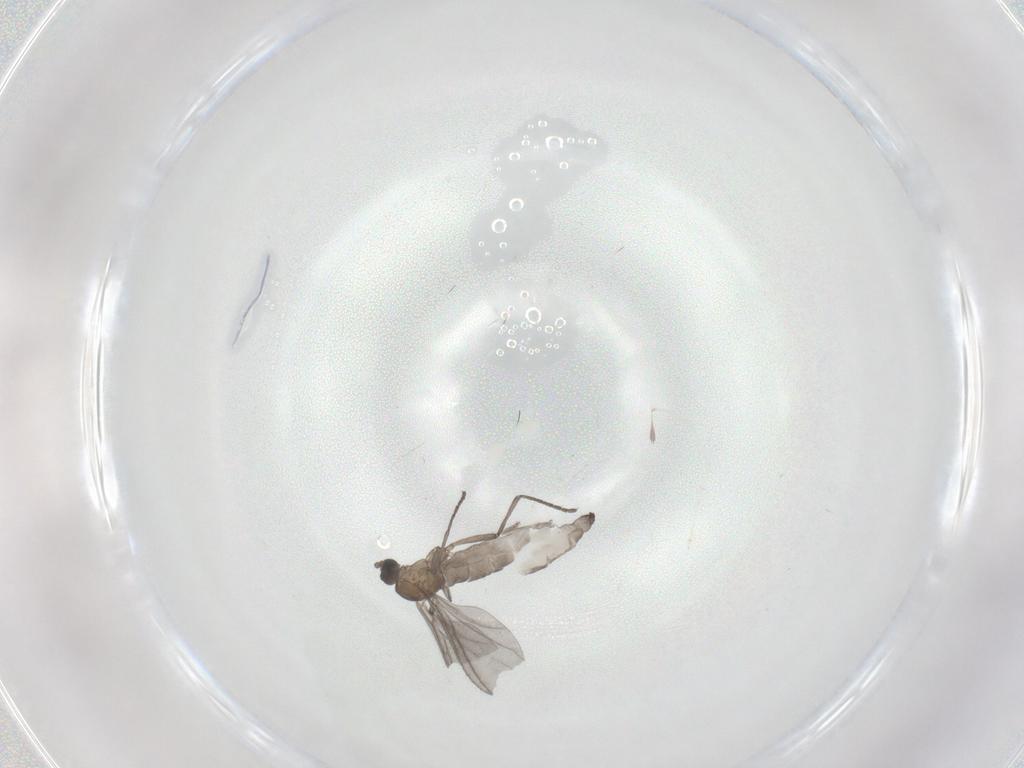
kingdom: Animalia
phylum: Arthropoda
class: Insecta
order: Diptera
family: Sciaridae
